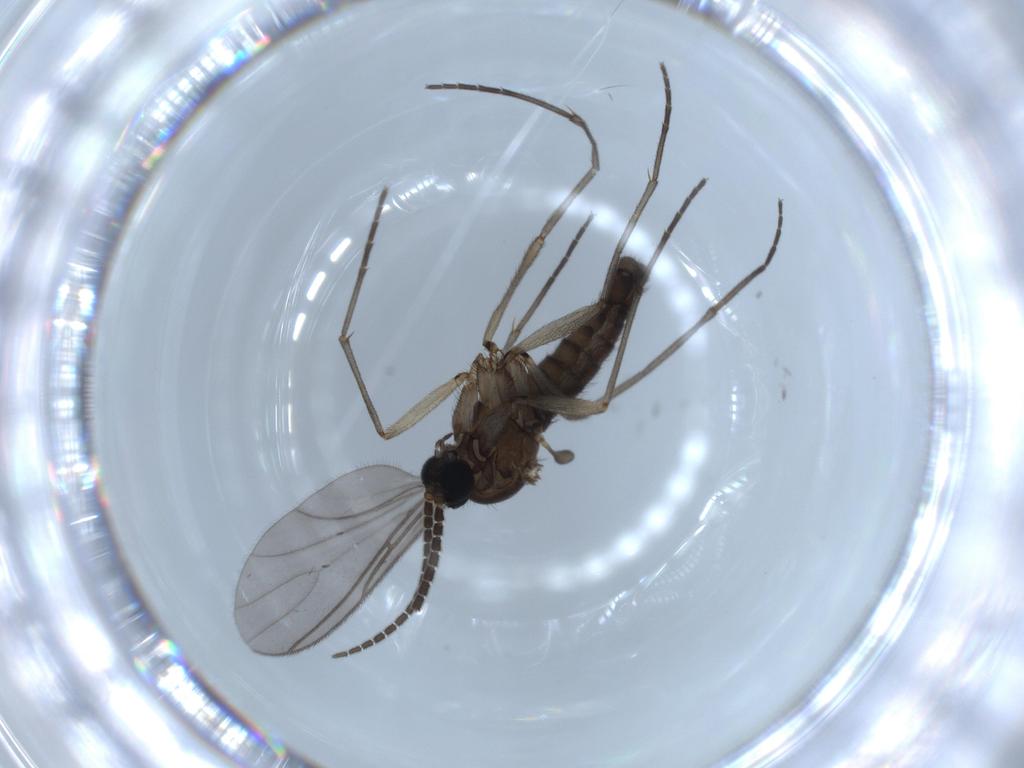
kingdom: Animalia
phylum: Arthropoda
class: Insecta
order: Diptera
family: Sciaridae
